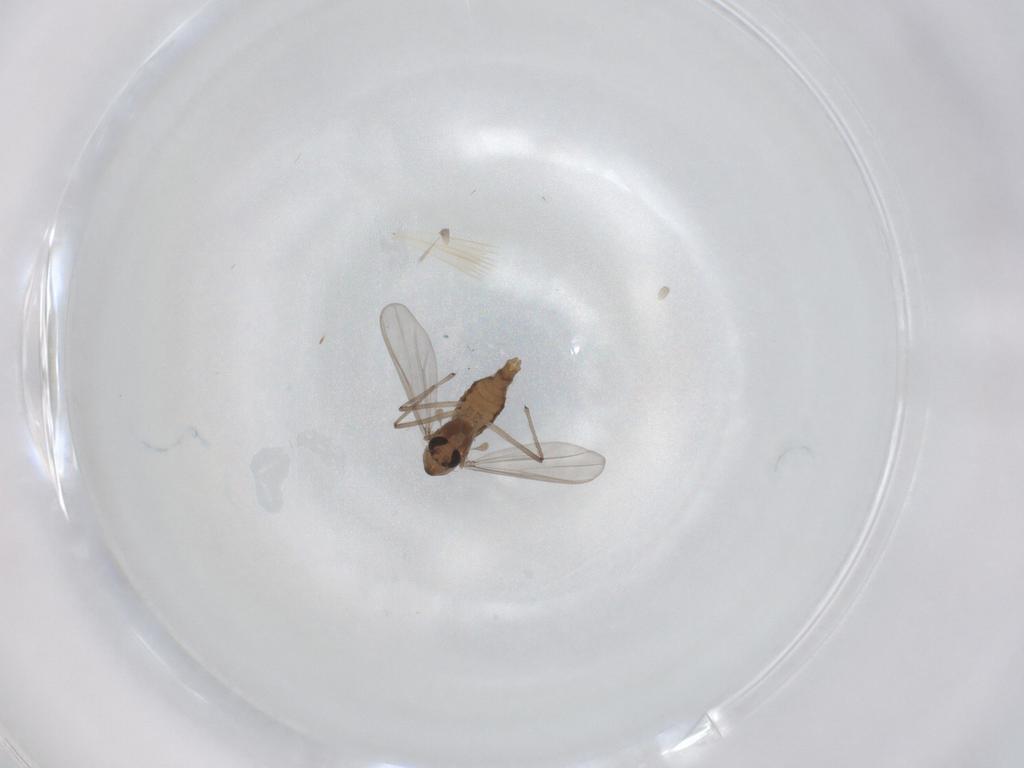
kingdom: Animalia
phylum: Arthropoda
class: Insecta
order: Diptera
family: Chironomidae
